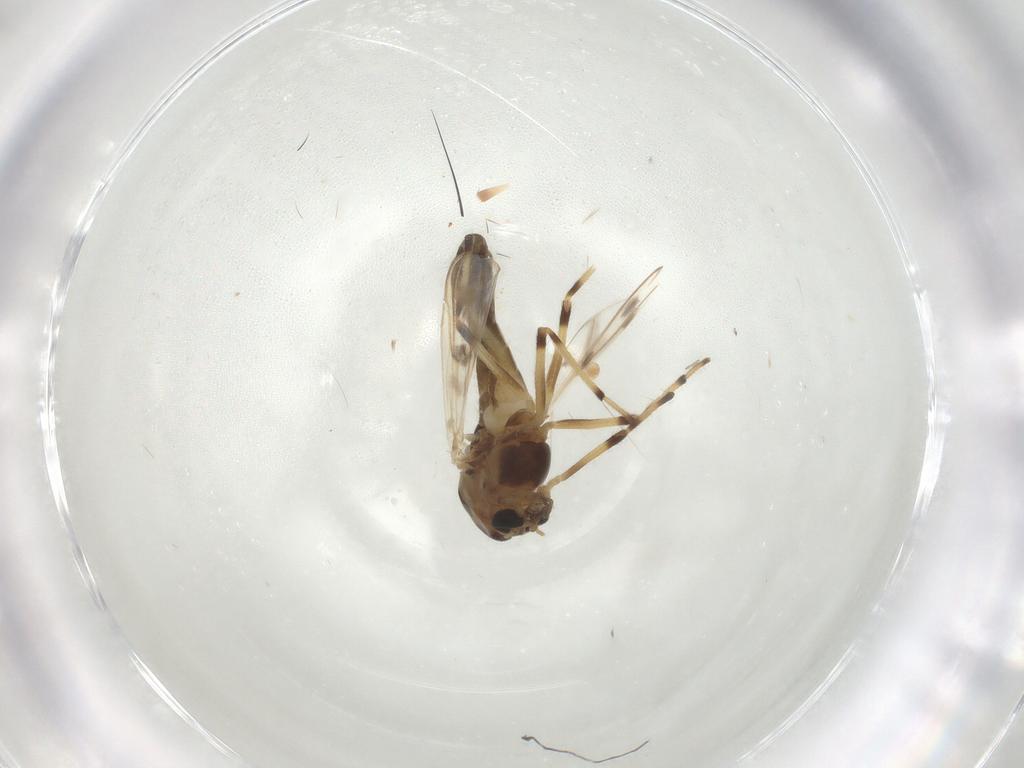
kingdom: Animalia
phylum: Arthropoda
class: Insecta
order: Diptera
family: Chironomidae
